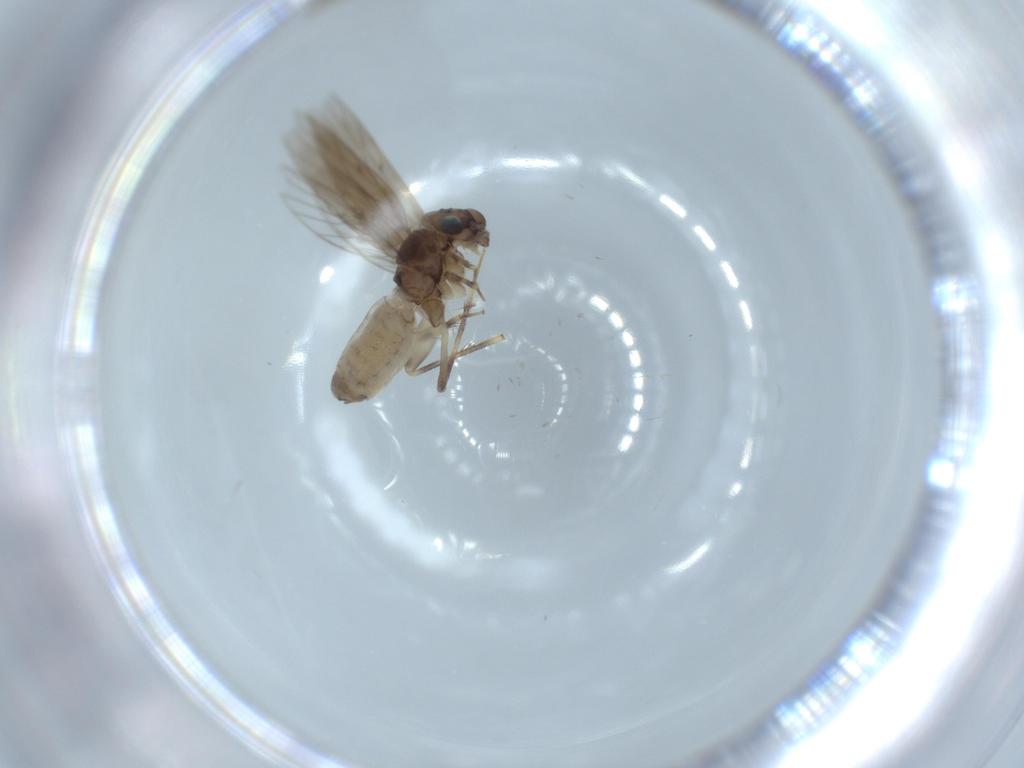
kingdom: Animalia
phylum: Arthropoda
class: Insecta
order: Psocodea
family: Lepidopsocidae
